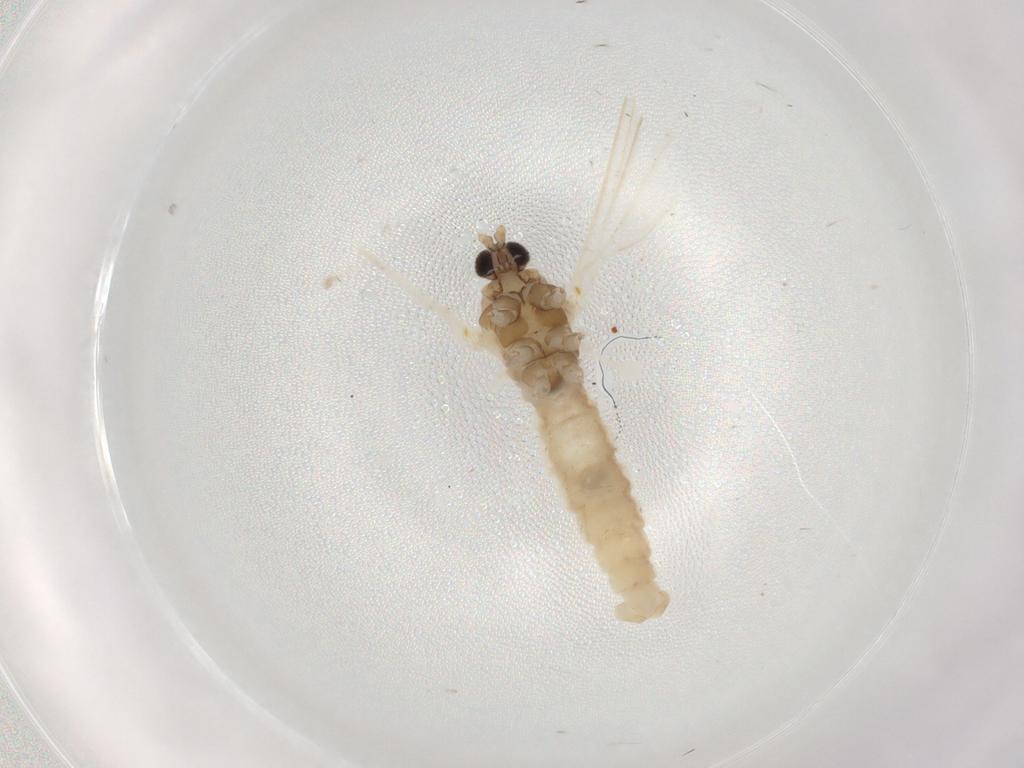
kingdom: Animalia
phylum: Arthropoda
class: Insecta
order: Diptera
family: Cecidomyiidae
